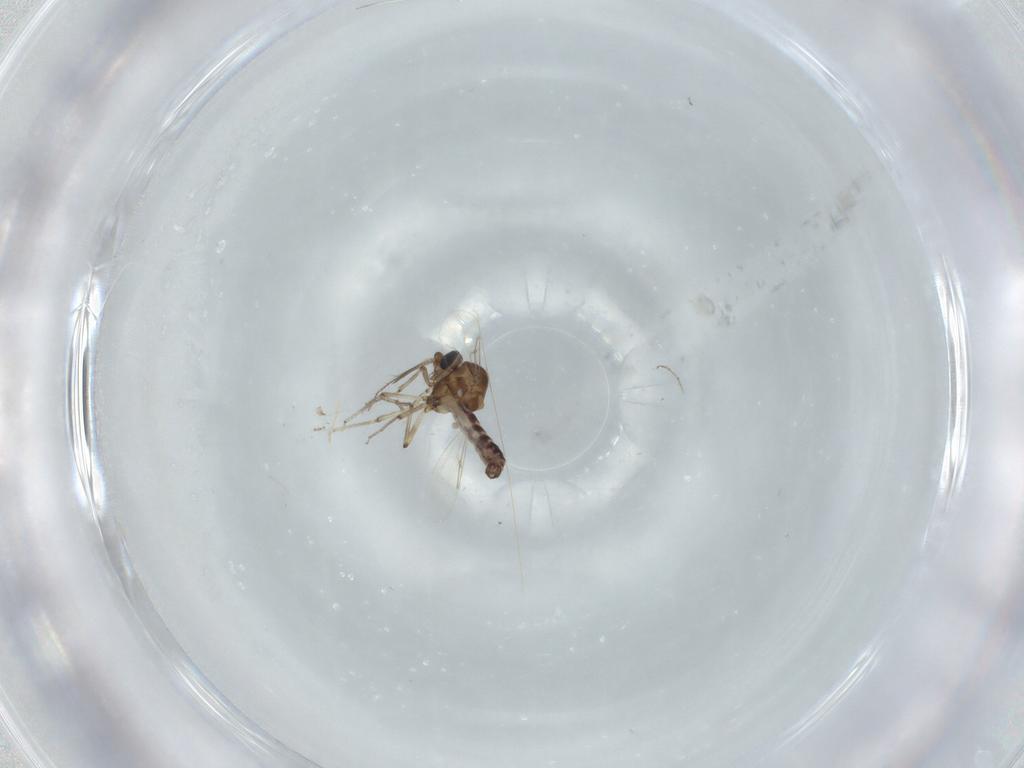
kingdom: Animalia
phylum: Arthropoda
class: Insecta
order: Diptera
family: Ceratopogonidae
